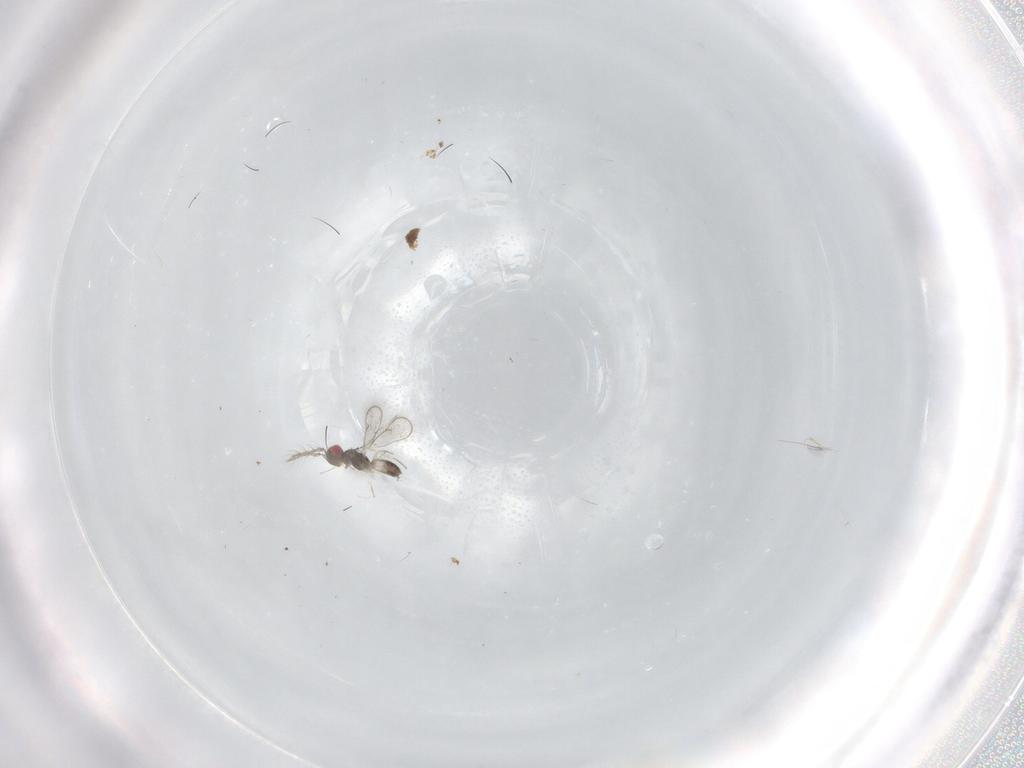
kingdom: Animalia
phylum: Arthropoda
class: Insecta
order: Hymenoptera
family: Eulophidae
